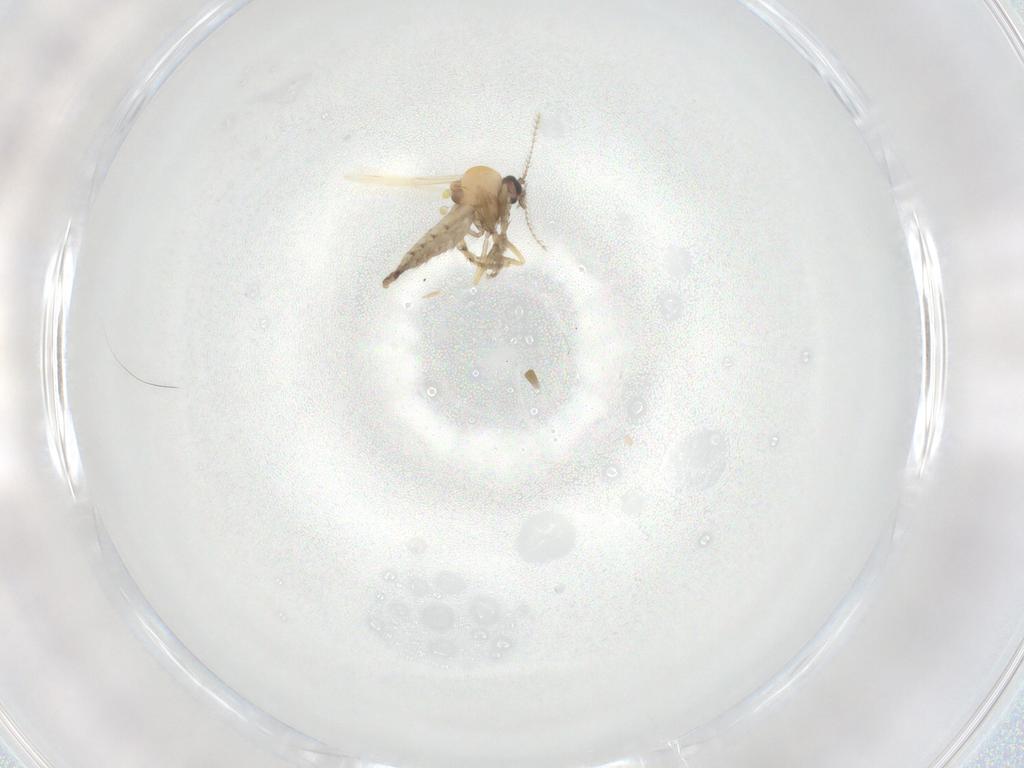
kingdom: Animalia
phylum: Arthropoda
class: Insecta
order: Diptera
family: Ceratopogonidae
